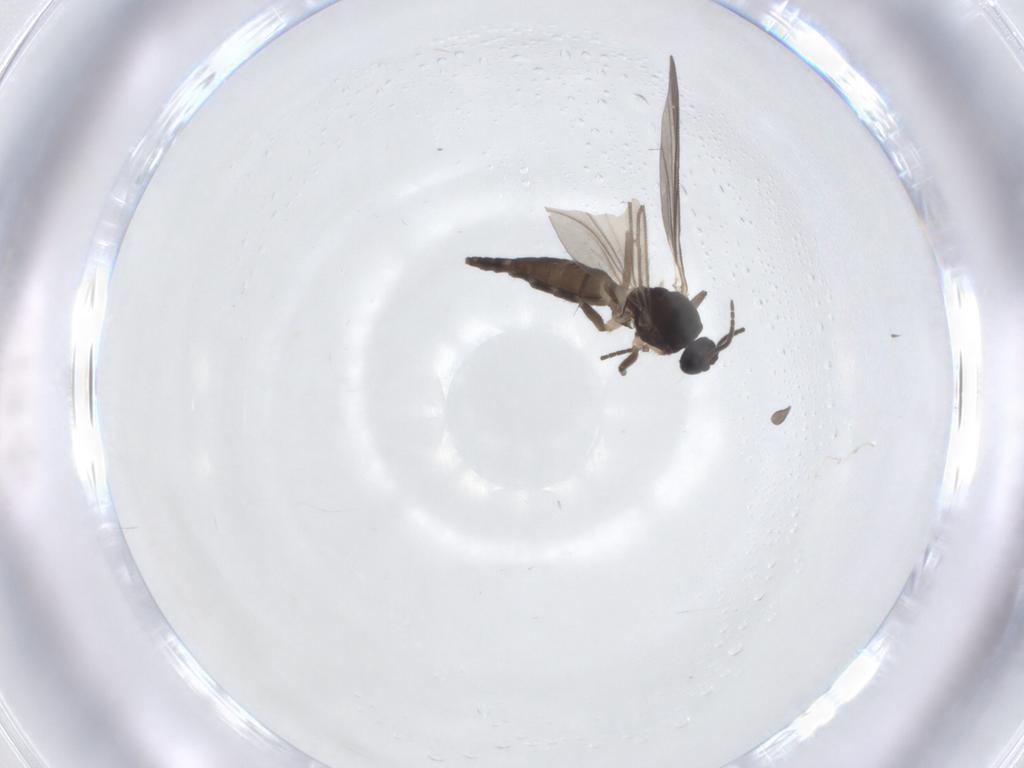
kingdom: Animalia
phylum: Arthropoda
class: Insecta
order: Diptera
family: Sciaridae
